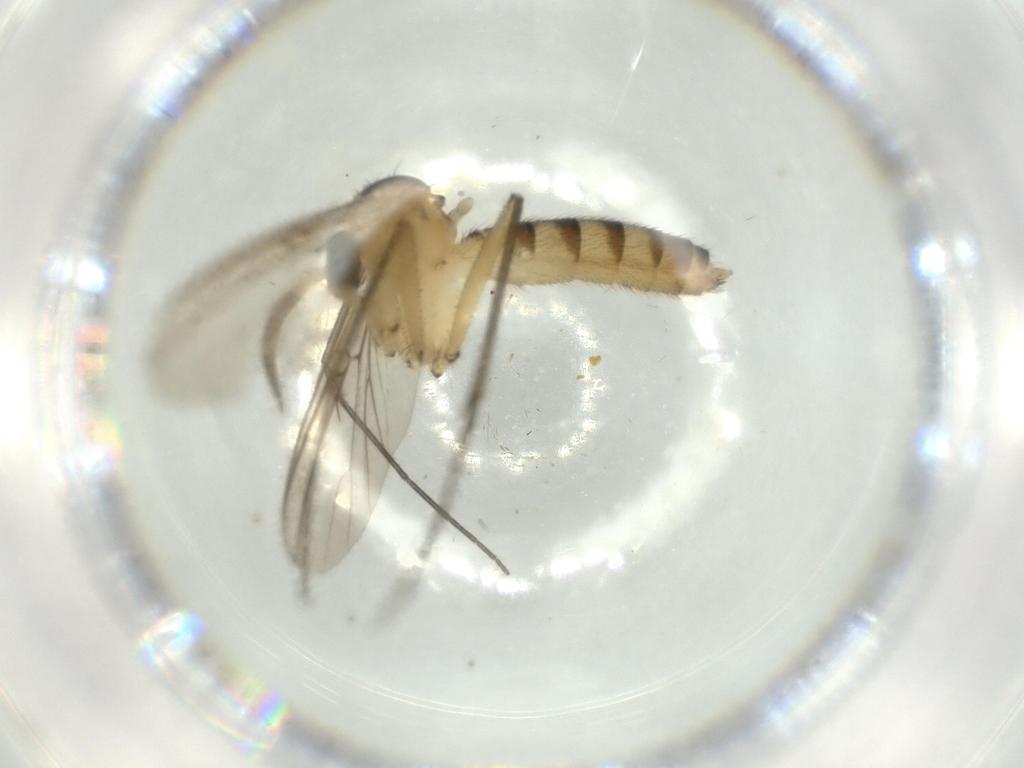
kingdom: Animalia
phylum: Arthropoda
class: Insecta
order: Diptera
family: Mycetophilidae
